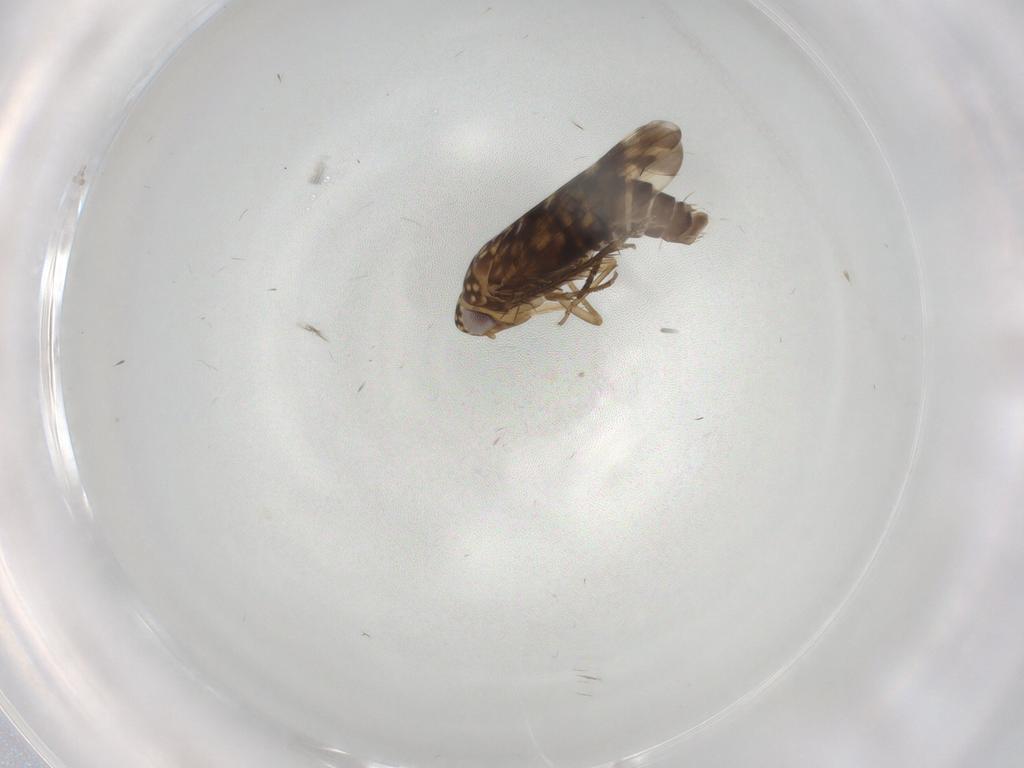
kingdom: Animalia
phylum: Arthropoda
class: Insecta
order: Hemiptera
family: Cicadellidae
